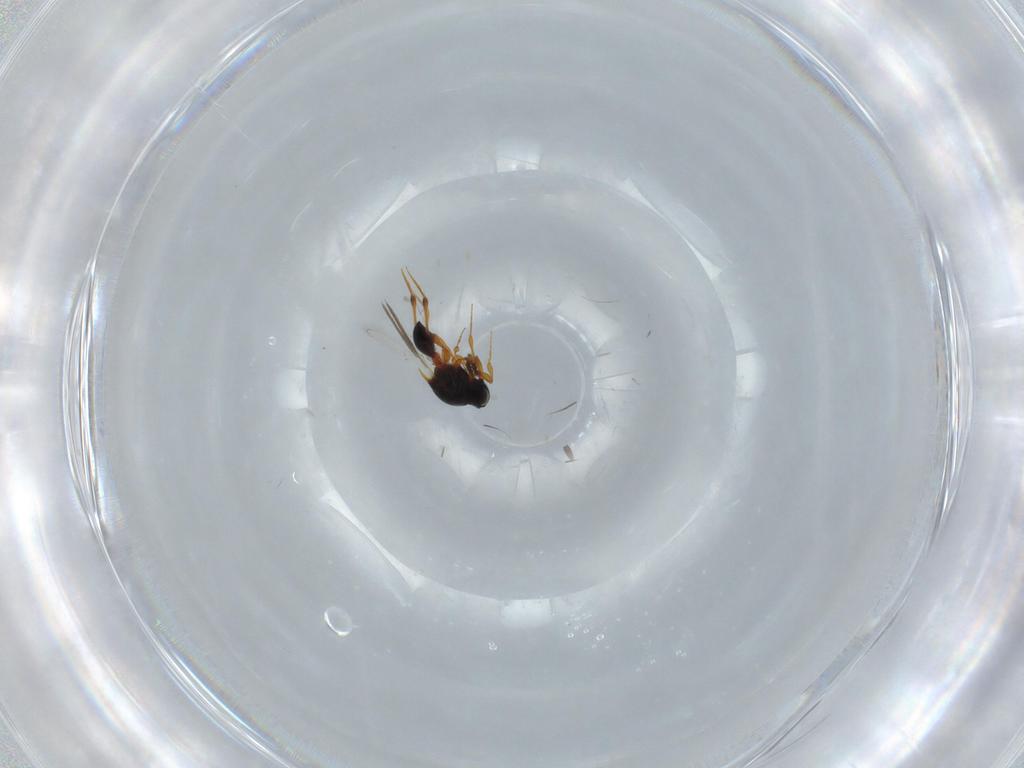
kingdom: Animalia
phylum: Arthropoda
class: Insecta
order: Hymenoptera
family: Platygastridae
